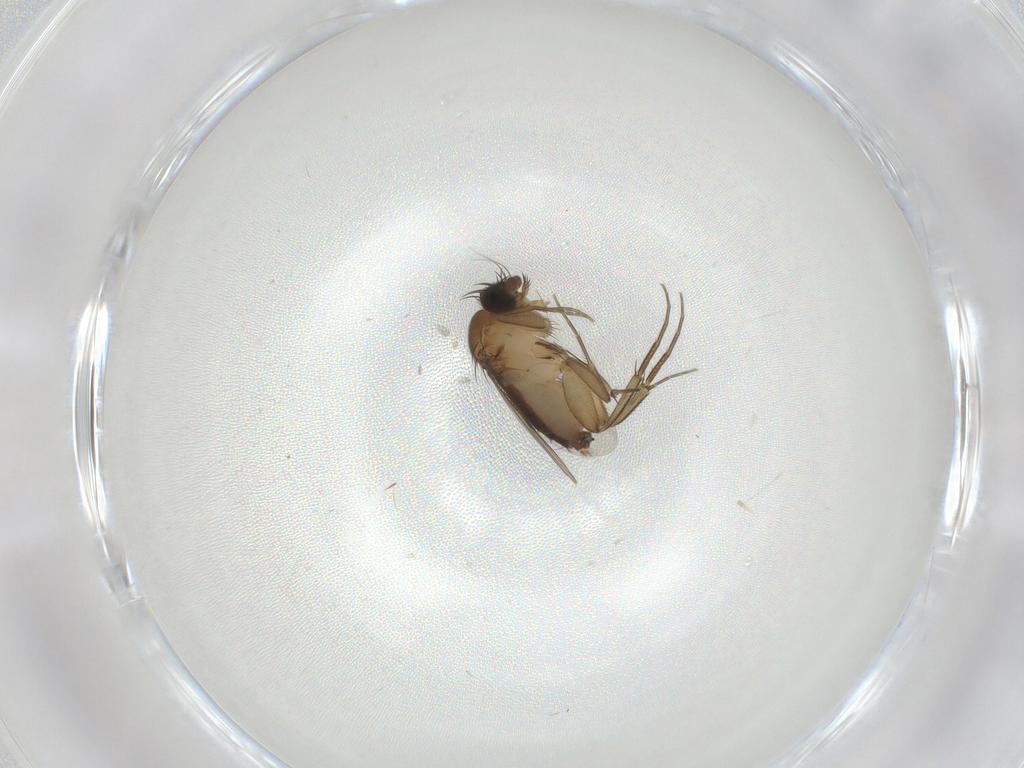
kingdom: Animalia
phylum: Arthropoda
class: Insecta
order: Diptera
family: Phoridae
